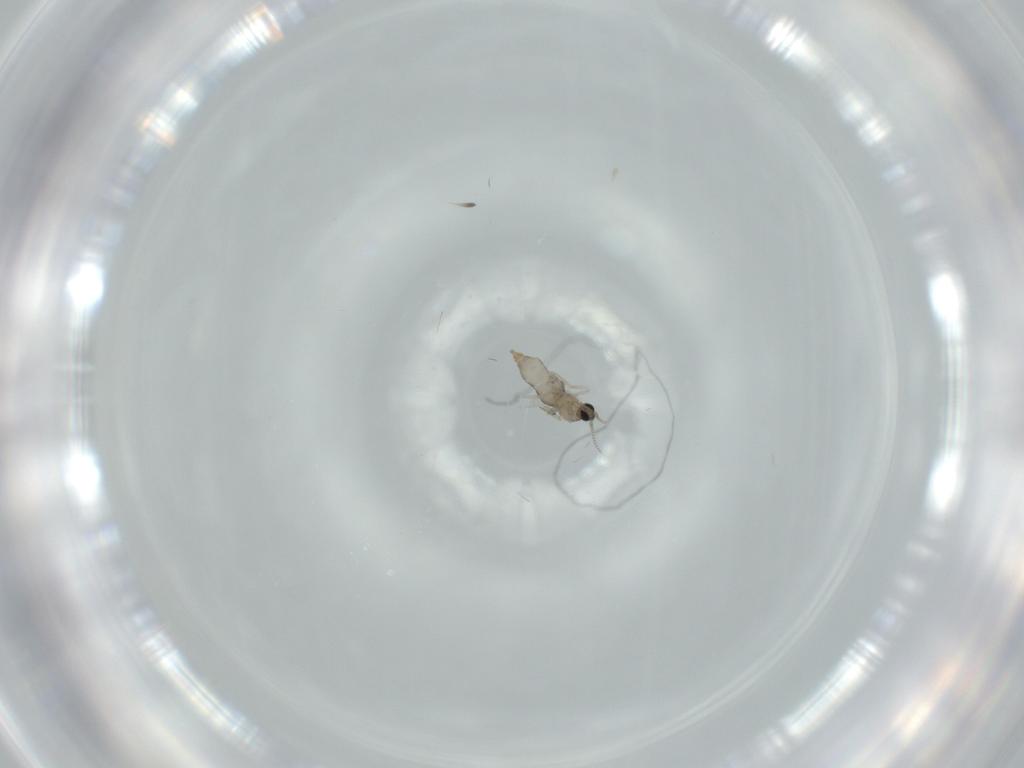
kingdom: Animalia
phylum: Arthropoda
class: Insecta
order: Diptera
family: Cecidomyiidae
